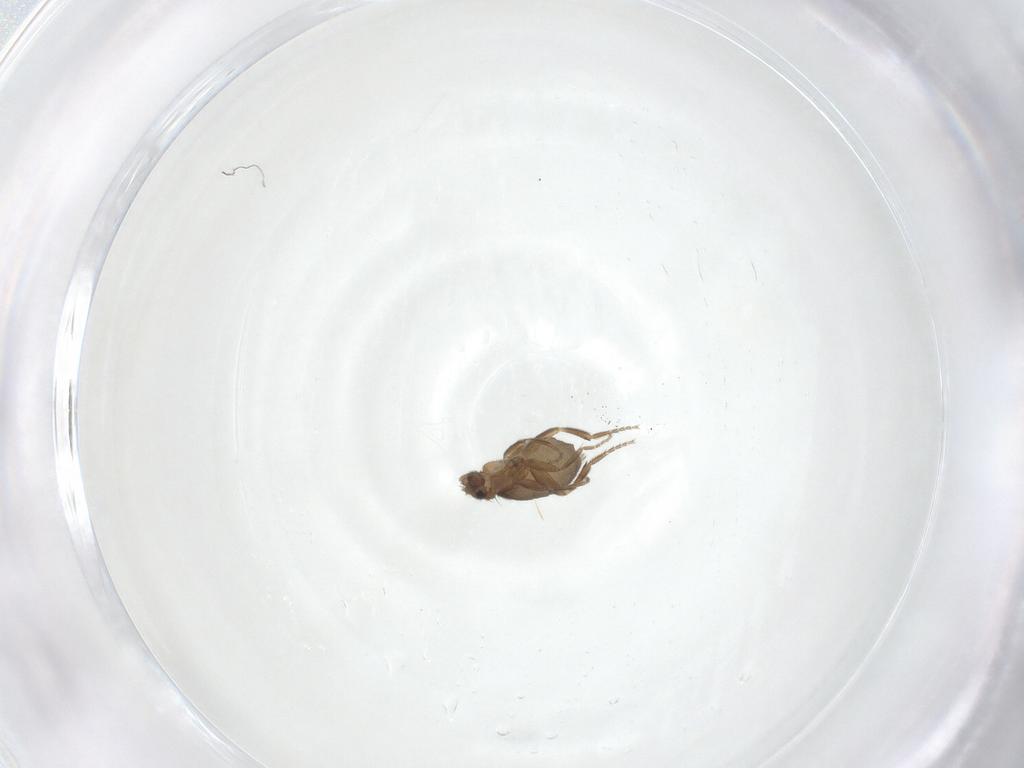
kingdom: Animalia
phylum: Arthropoda
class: Insecta
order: Diptera
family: Phoridae
